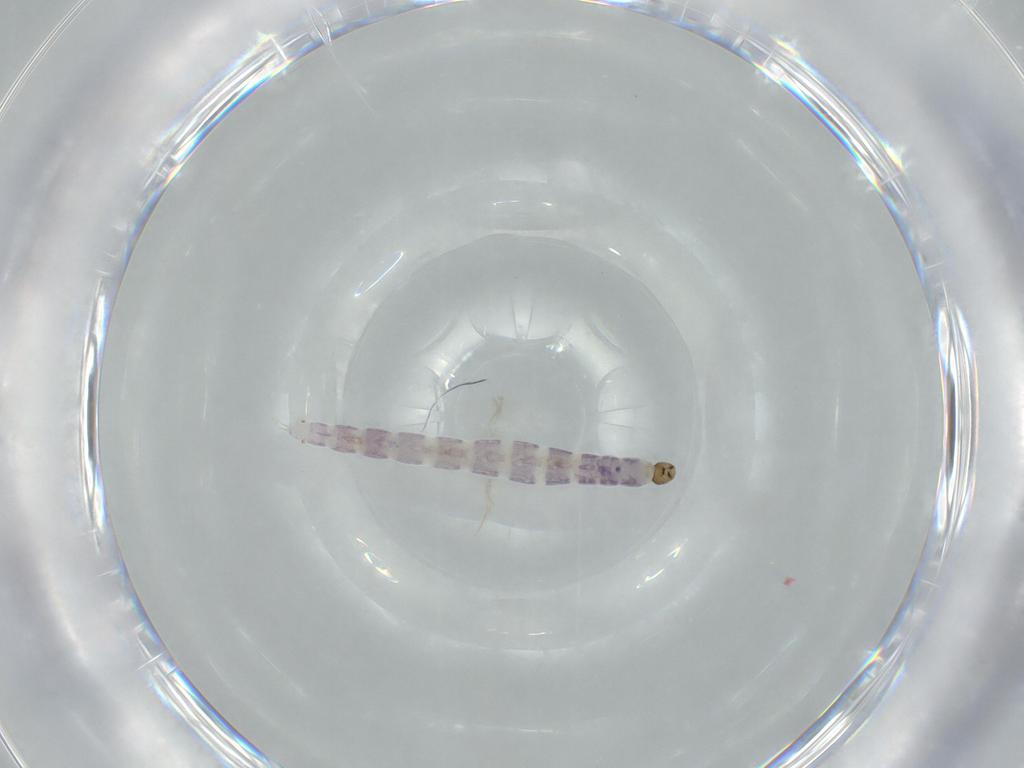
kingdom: Animalia
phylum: Arthropoda
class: Insecta
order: Diptera
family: Chironomidae
